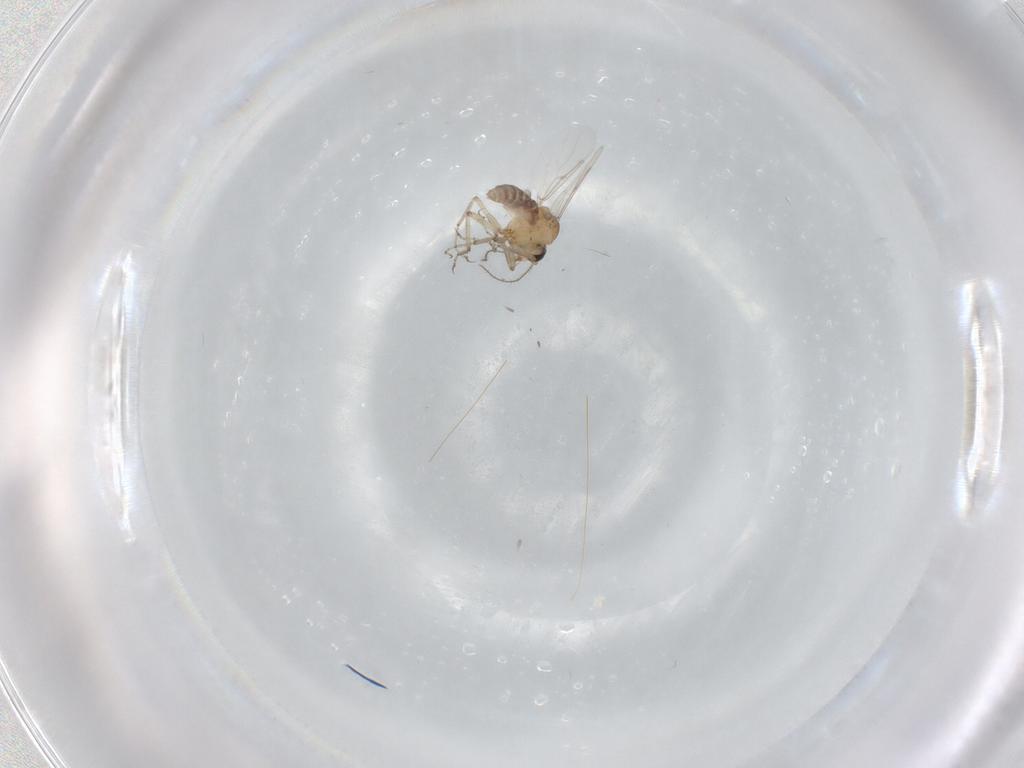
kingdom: Animalia
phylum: Arthropoda
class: Insecta
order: Diptera
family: Ceratopogonidae
